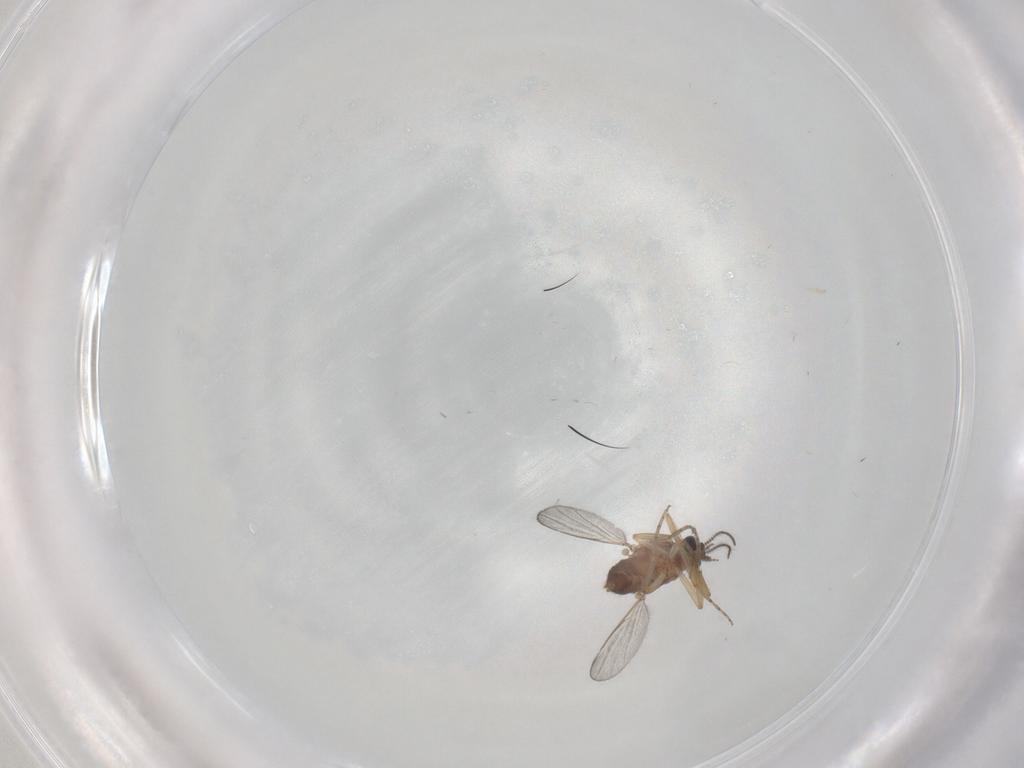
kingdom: Animalia
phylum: Arthropoda
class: Insecta
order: Diptera
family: Ceratopogonidae
